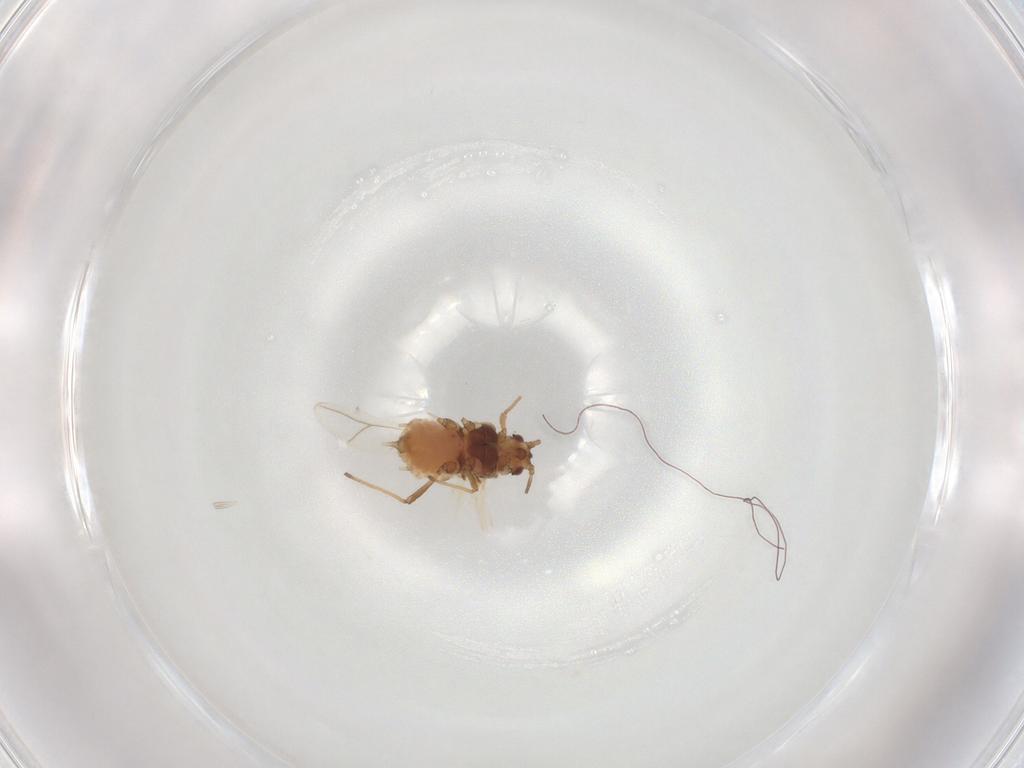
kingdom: Animalia
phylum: Arthropoda
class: Insecta
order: Hemiptera
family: Aphididae
